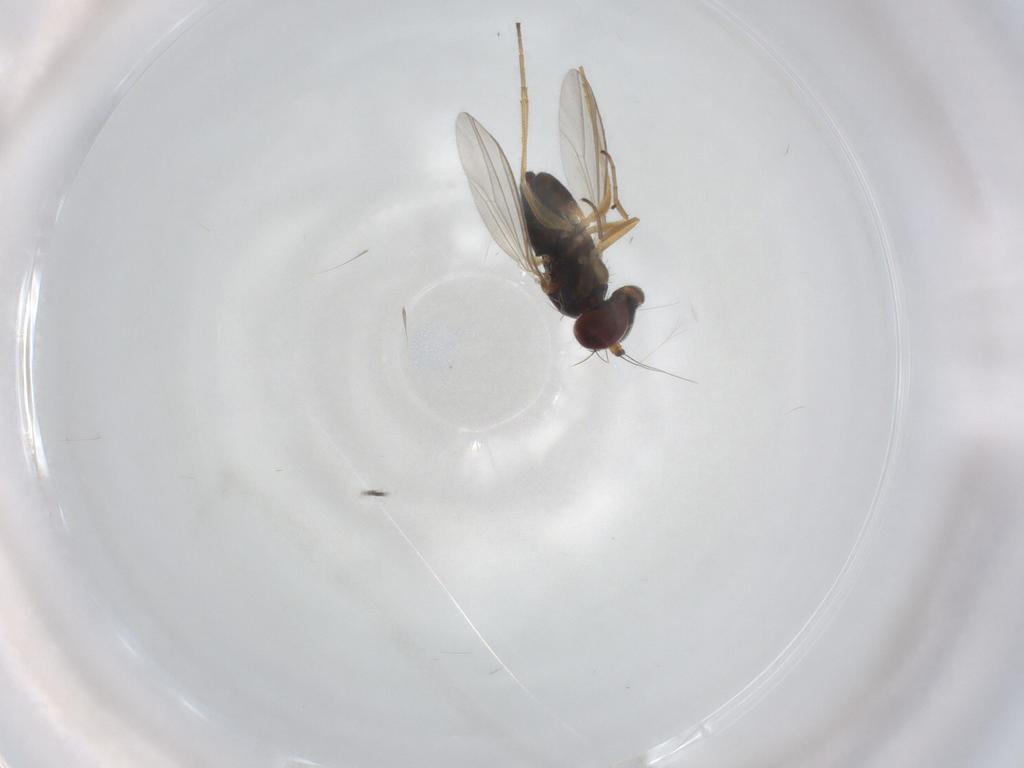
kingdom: Animalia
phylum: Arthropoda
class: Insecta
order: Diptera
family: Dolichopodidae
